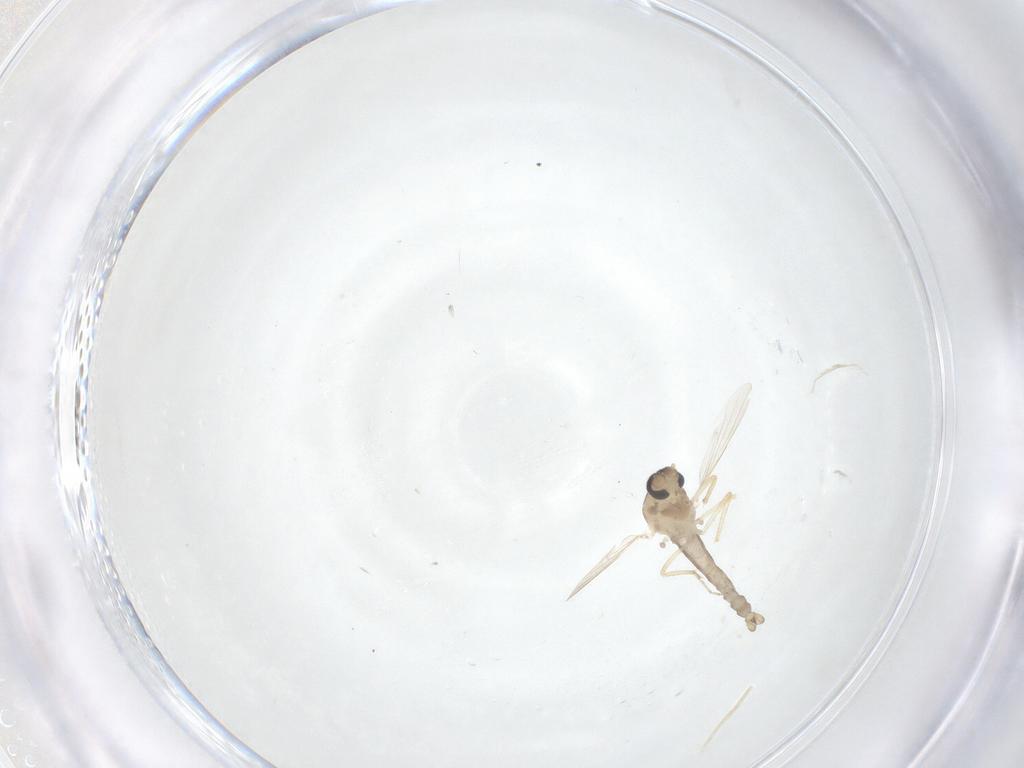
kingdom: Animalia
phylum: Arthropoda
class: Insecta
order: Diptera
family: Ceratopogonidae
